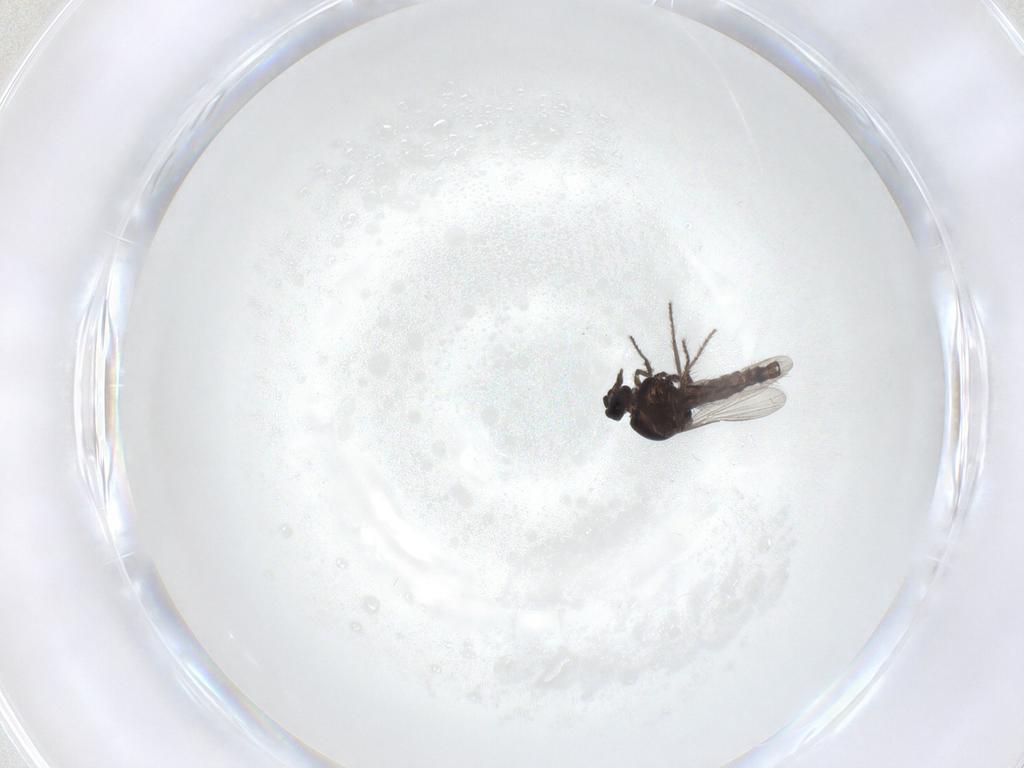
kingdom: Animalia
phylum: Arthropoda
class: Insecta
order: Diptera
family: Ceratopogonidae
